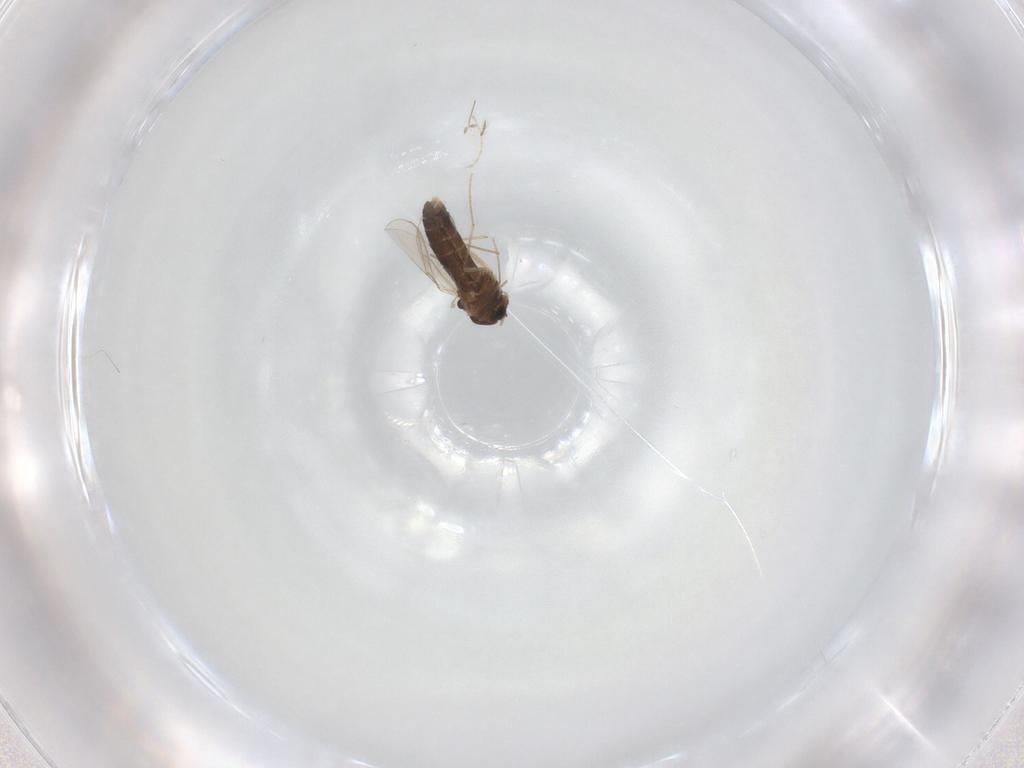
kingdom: Animalia
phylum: Arthropoda
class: Insecta
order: Diptera
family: Chironomidae
